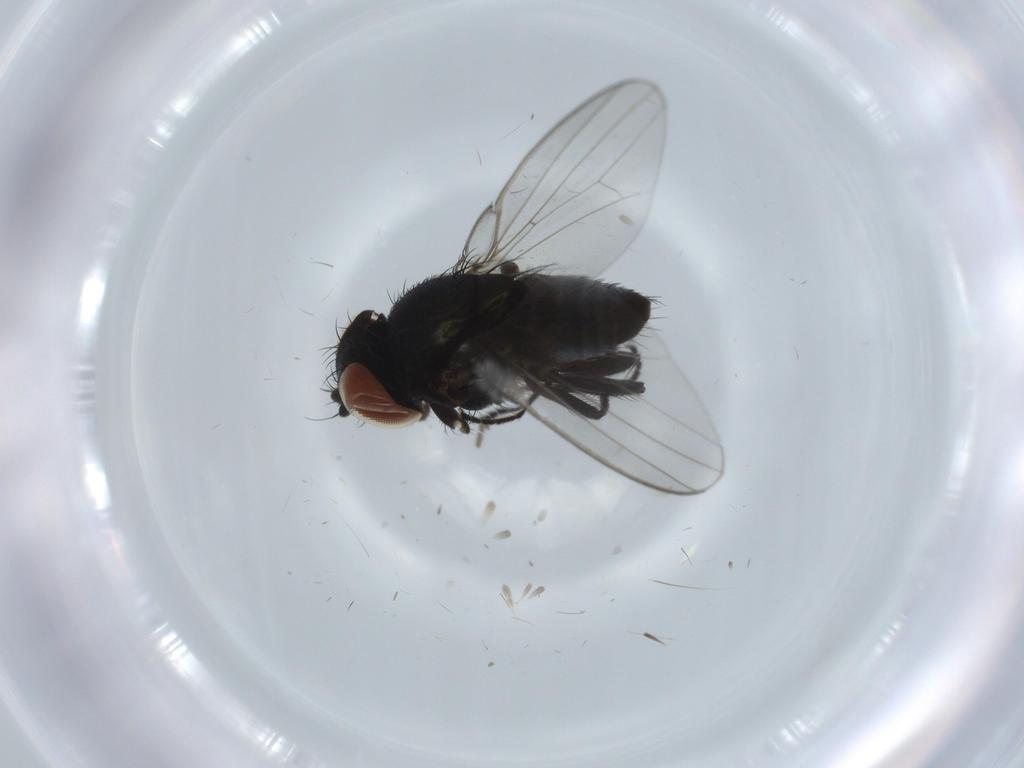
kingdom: Animalia
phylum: Arthropoda
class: Insecta
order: Diptera
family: Milichiidae
